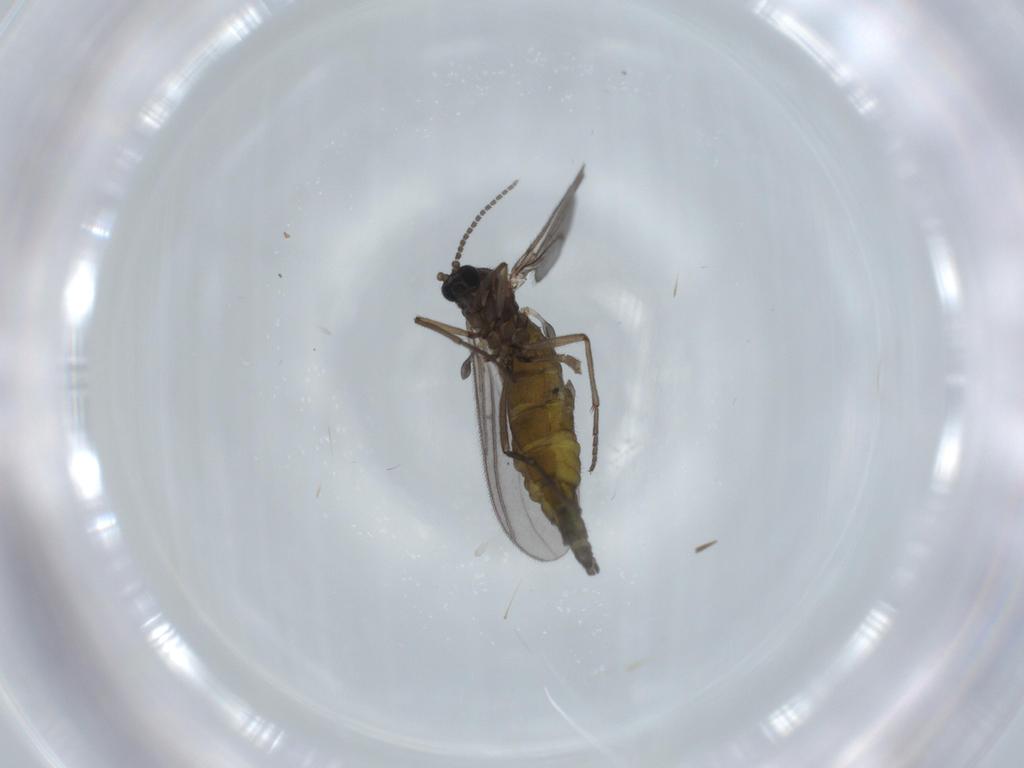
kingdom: Animalia
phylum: Arthropoda
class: Insecta
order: Diptera
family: Sciaridae
